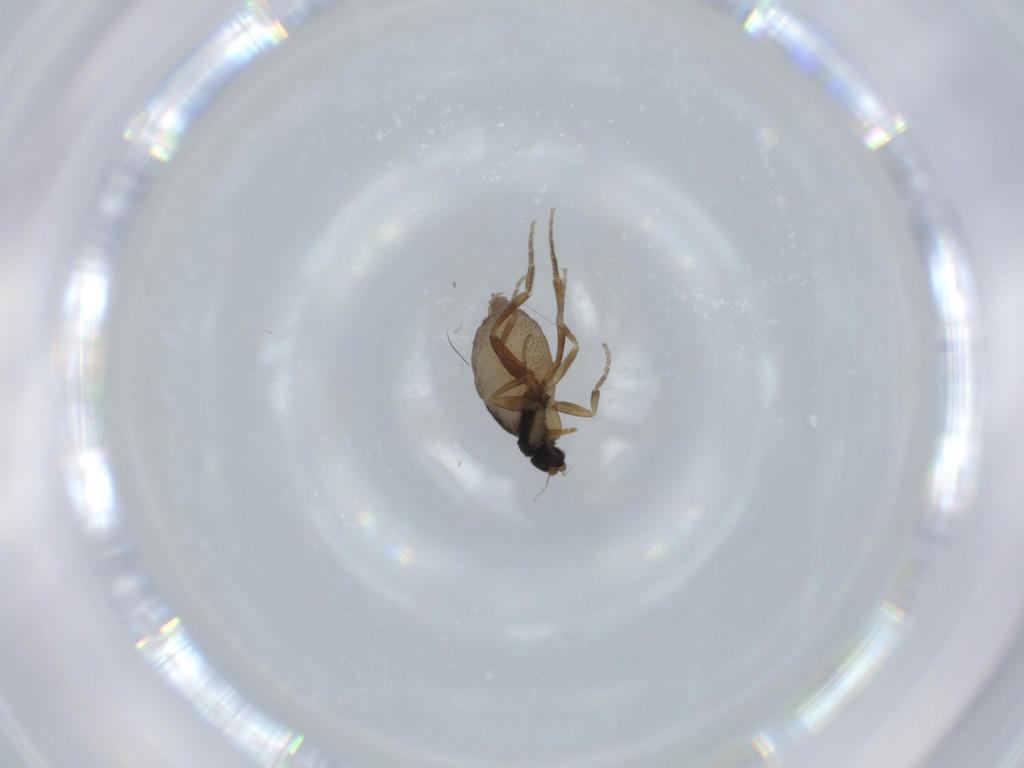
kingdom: Animalia
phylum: Arthropoda
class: Insecta
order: Diptera
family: Phoridae
